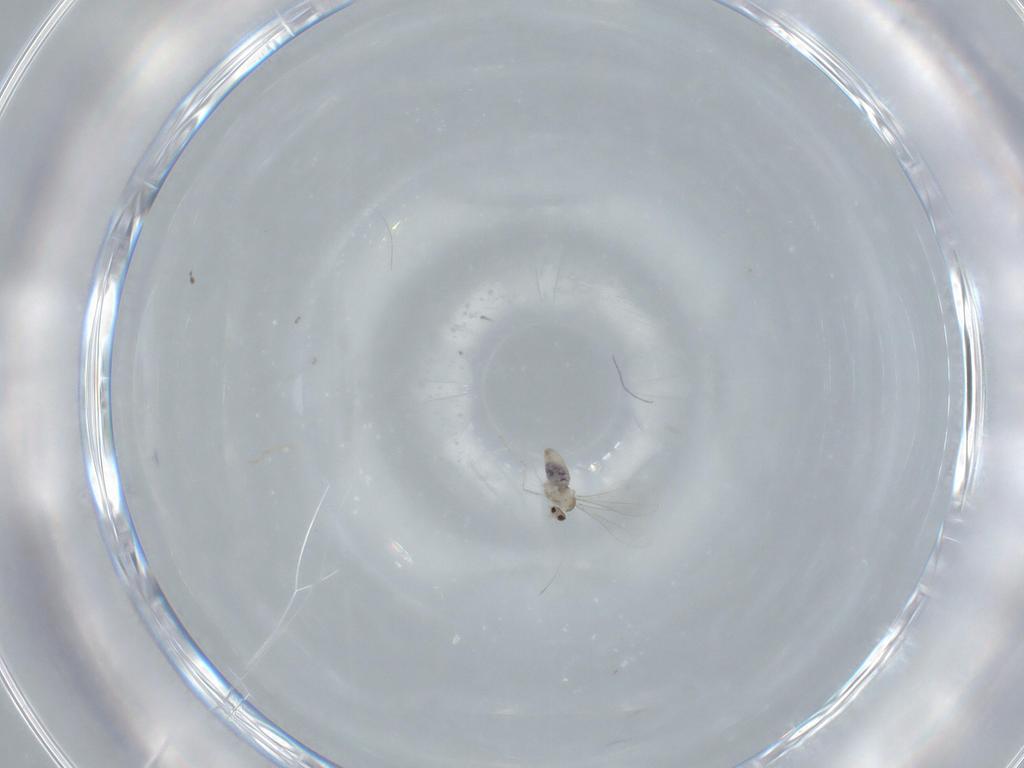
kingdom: Animalia
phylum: Arthropoda
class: Insecta
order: Diptera
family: Cecidomyiidae
